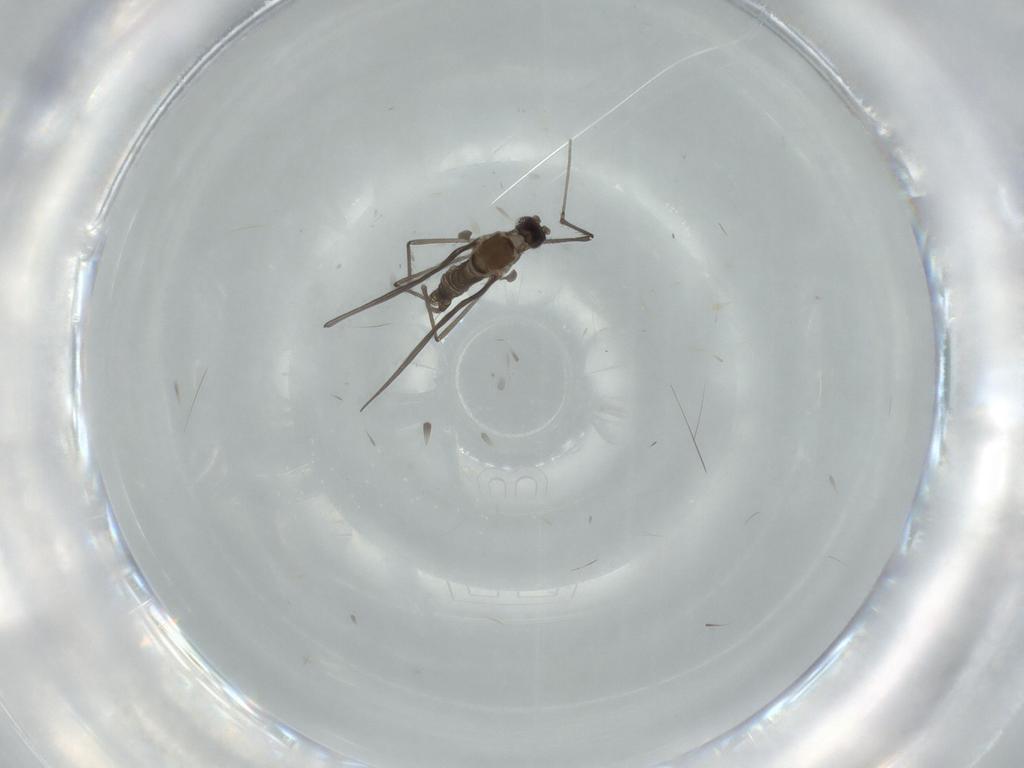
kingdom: Animalia
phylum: Arthropoda
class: Insecta
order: Diptera
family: Cecidomyiidae
